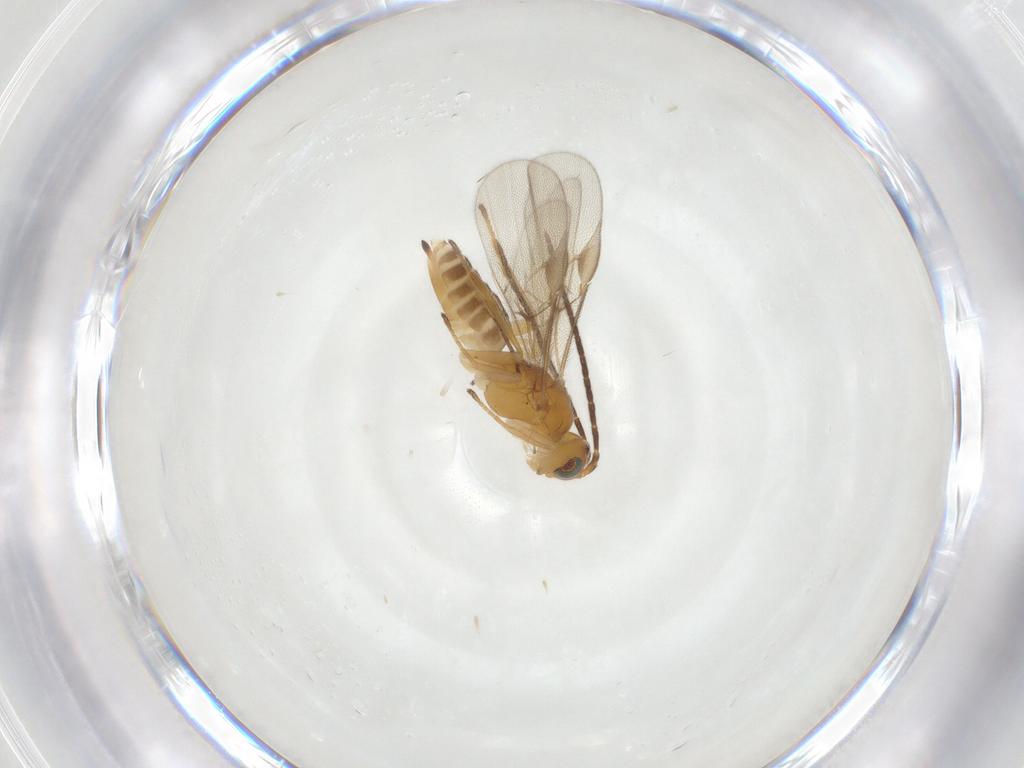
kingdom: Animalia
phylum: Arthropoda
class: Insecta
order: Hymenoptera
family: Braconidae
